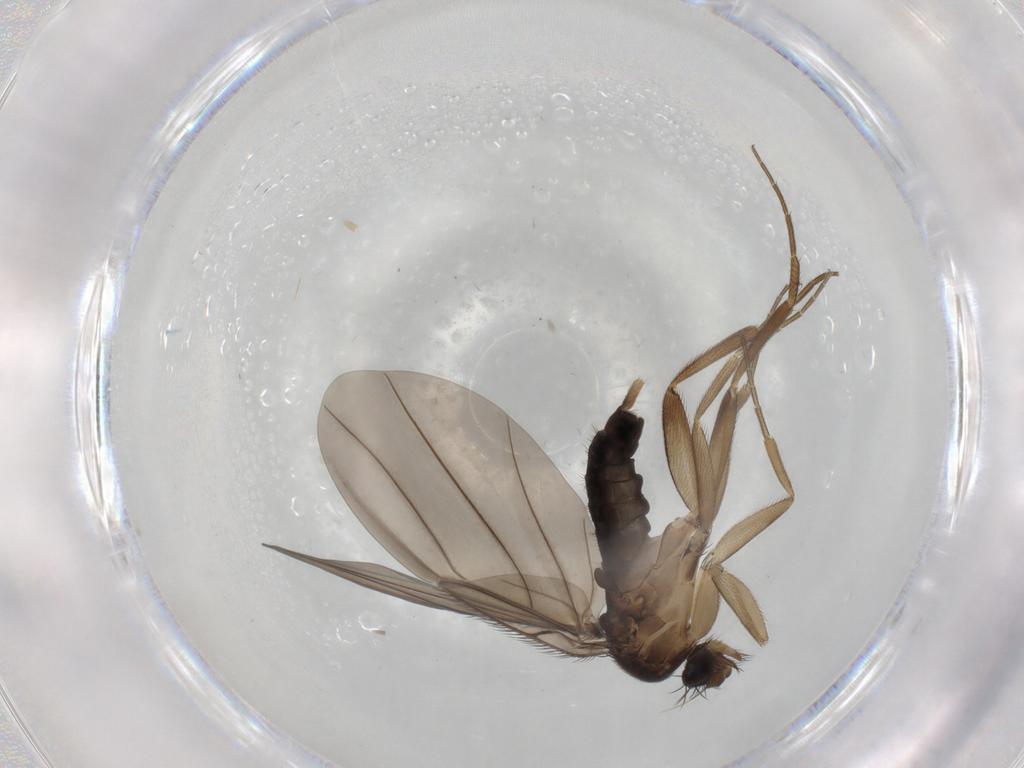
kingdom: Animalia
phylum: Arthropoda
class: Insecta
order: Diptera
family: Phoridae
